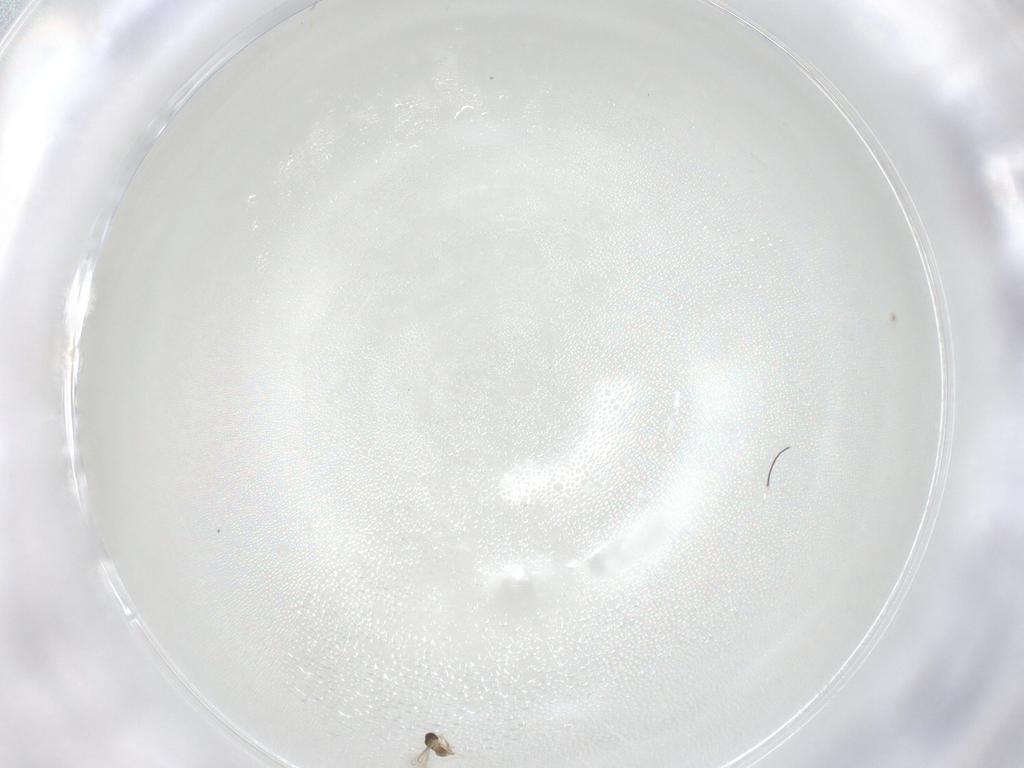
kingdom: Animalia
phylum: Arthropoda
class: Insecta
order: Hymenoptera
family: Eulophidae
